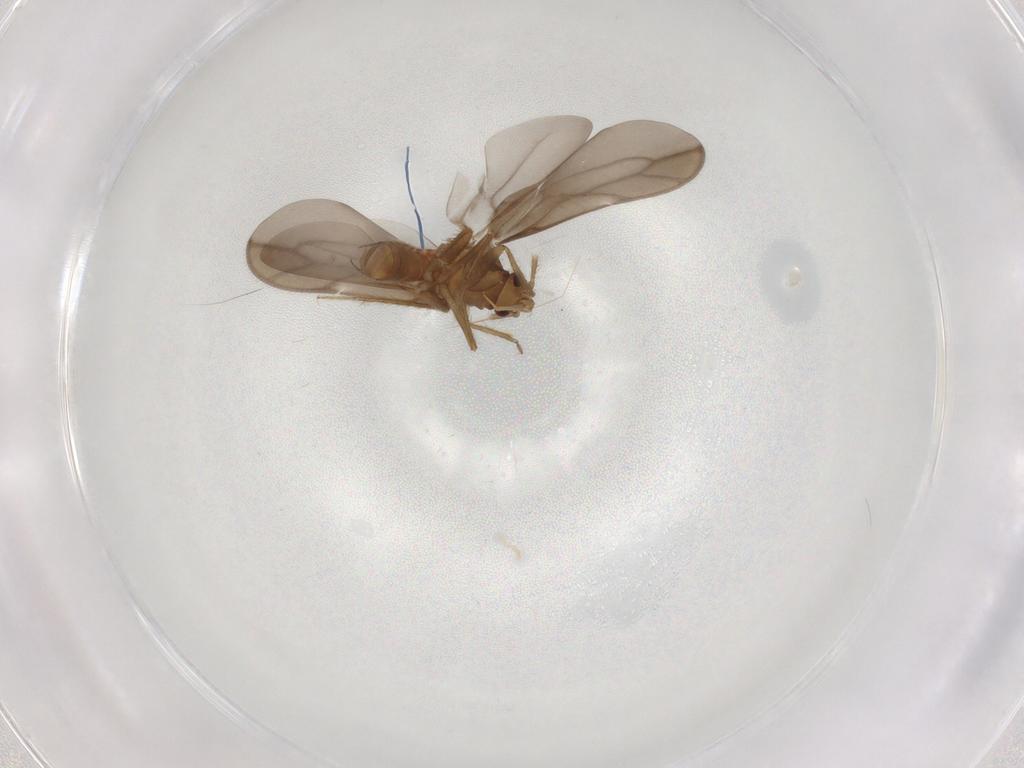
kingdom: Animalia
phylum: Arthropoda
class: Insecta
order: Hemiptera
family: Ceratocombidae
